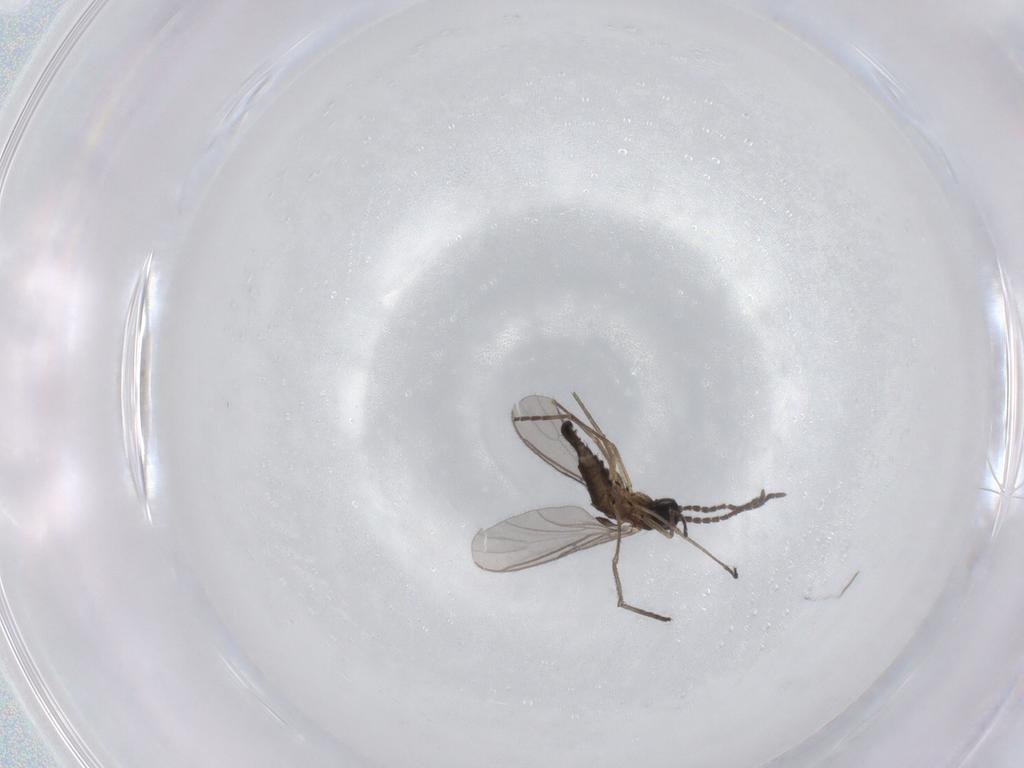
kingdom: Animalia
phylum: Arthropoda
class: Insecta
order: Diptera
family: Sciaridae
